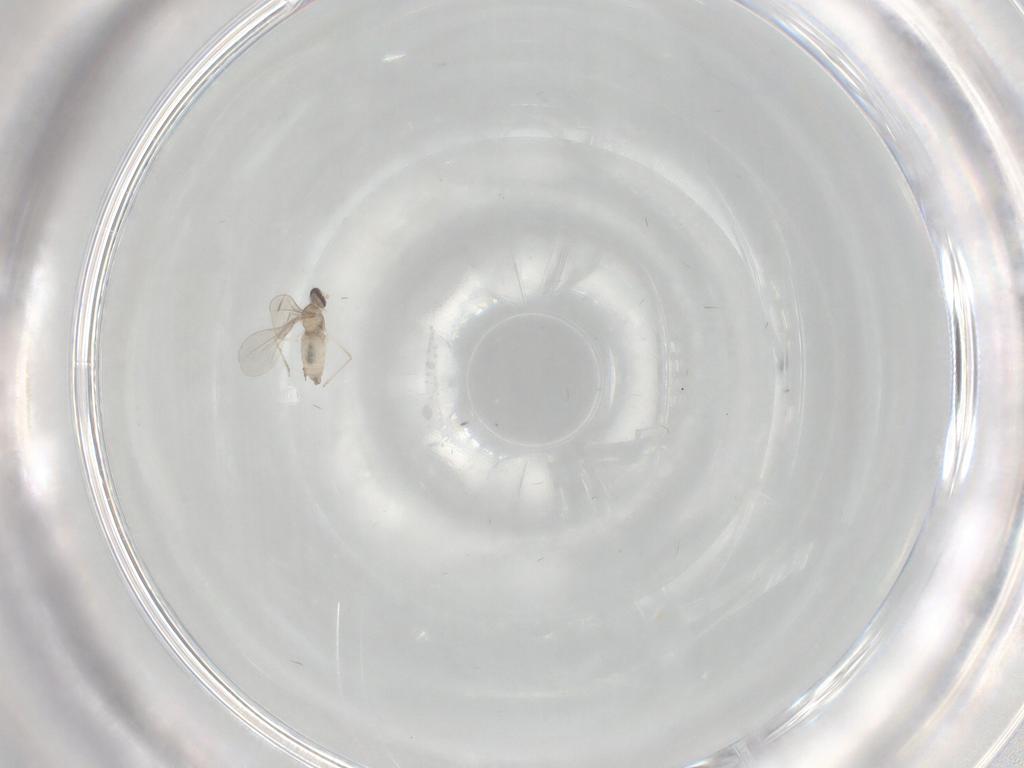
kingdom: Animalia
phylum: Arthropoda
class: Insecta
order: Diptera
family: Chironomidae
